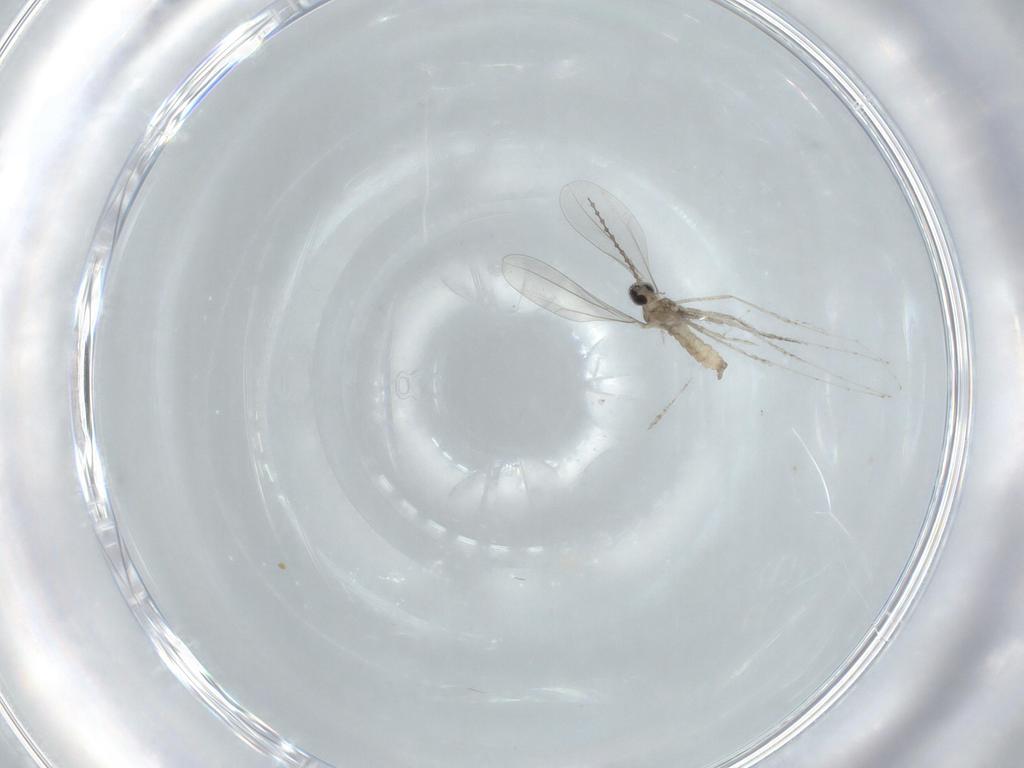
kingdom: Animalia
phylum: Arthropoda
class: Insecta
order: Diptera
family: Cecidomyiidae
